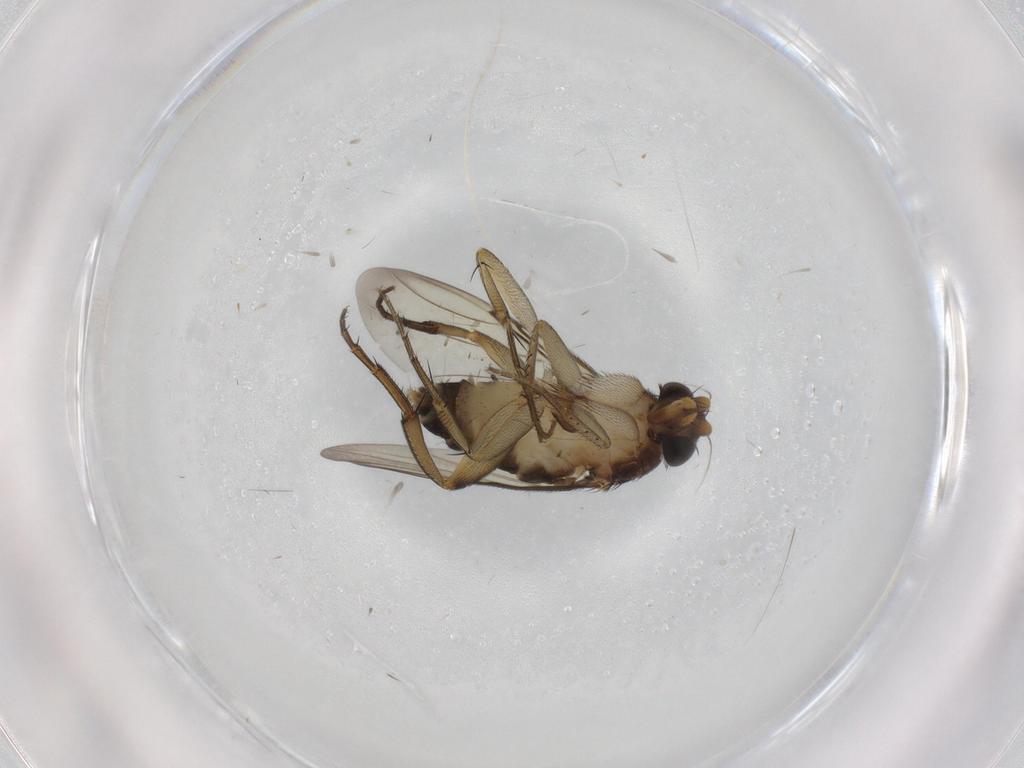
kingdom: Animalia
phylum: Arthropoda
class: Insecta
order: Diptera
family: Phoridae
